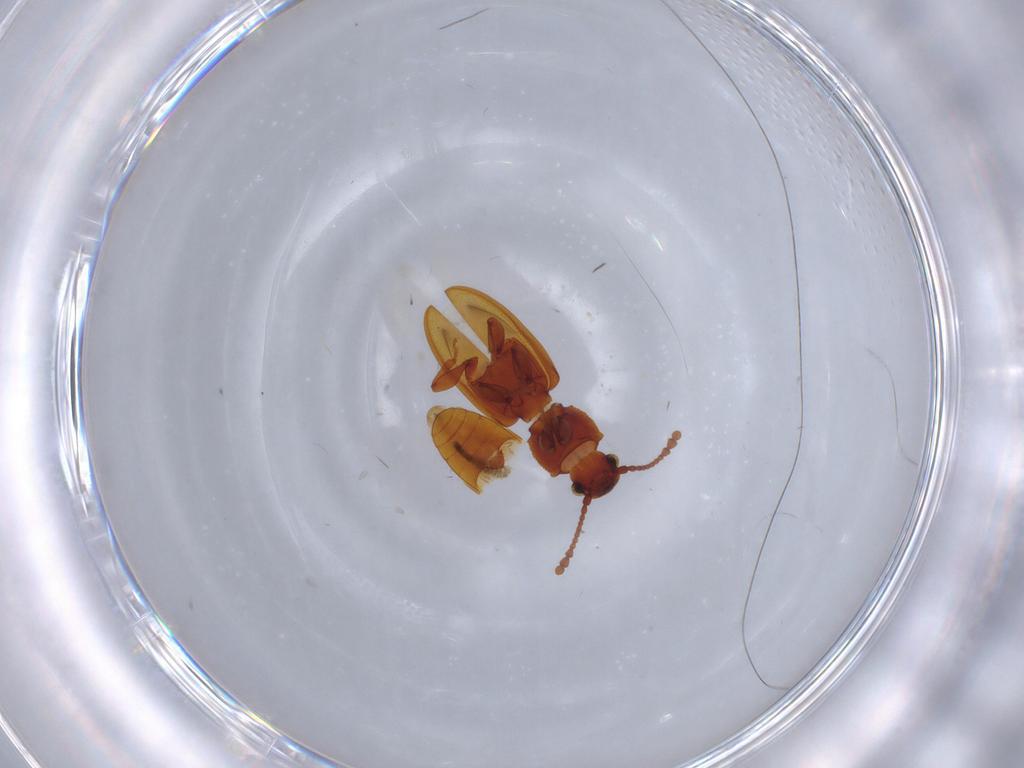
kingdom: Animalia
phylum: Arthropoda
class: Insecta
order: Coleoptera
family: Silvanidae
